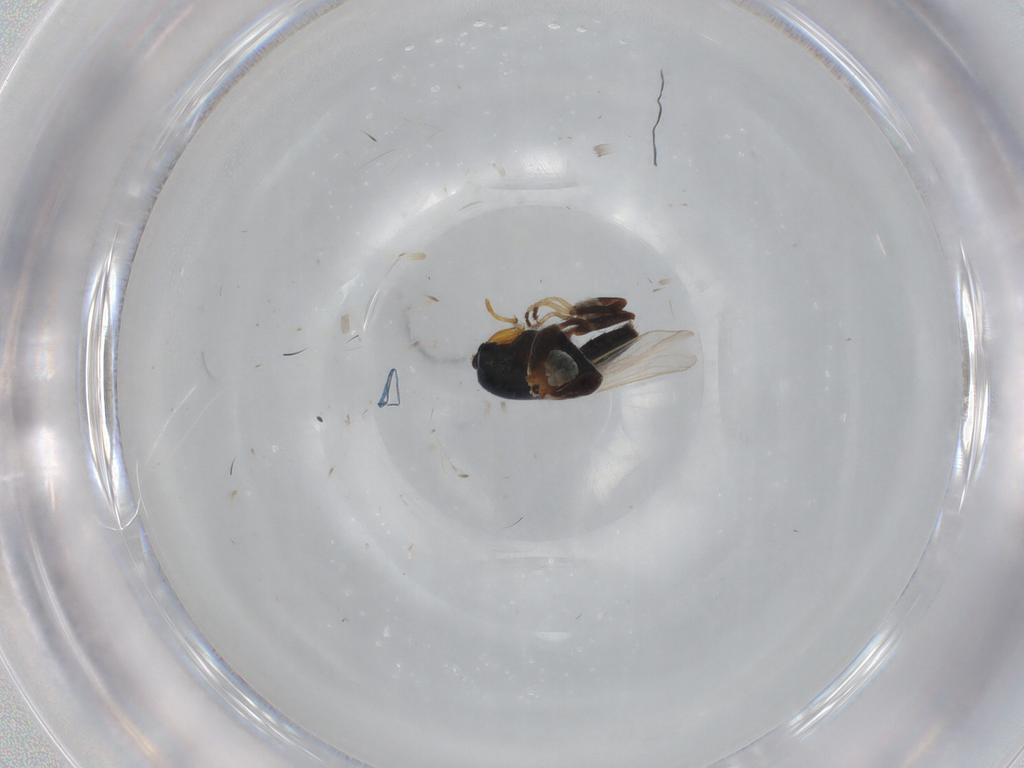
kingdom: Animalia
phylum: Arthropoda
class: Insecta
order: Diptera
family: Chloropidae
